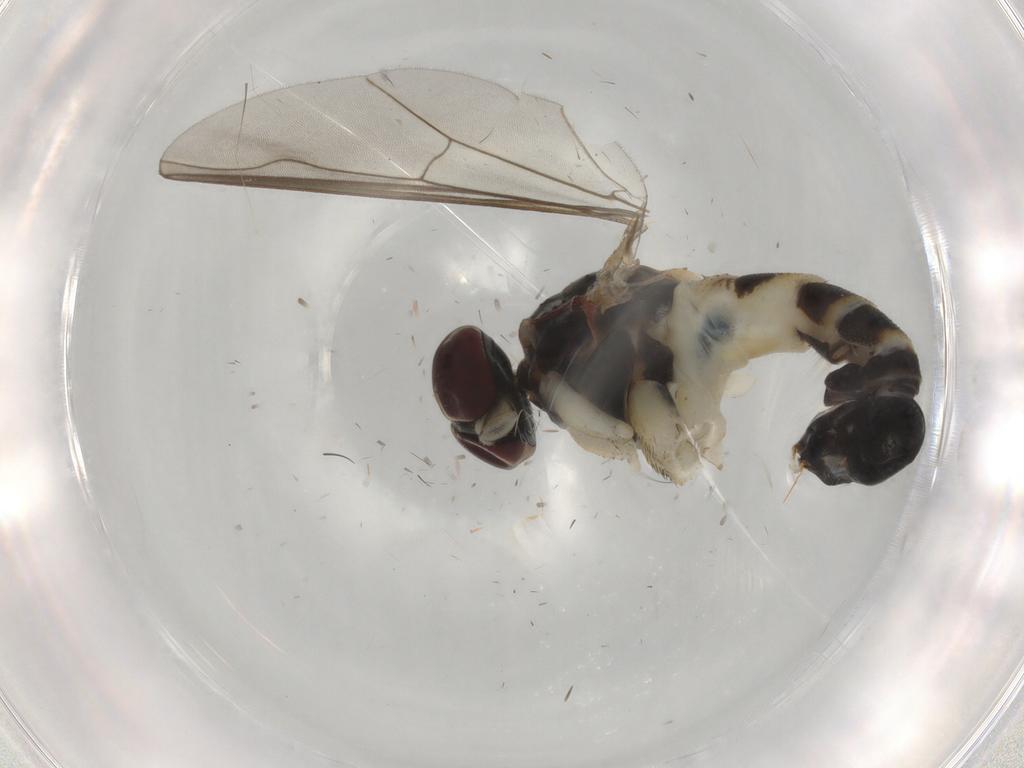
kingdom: Animalia
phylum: Arthropoda
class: Insecta
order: Diptera
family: Dolichopodidae
